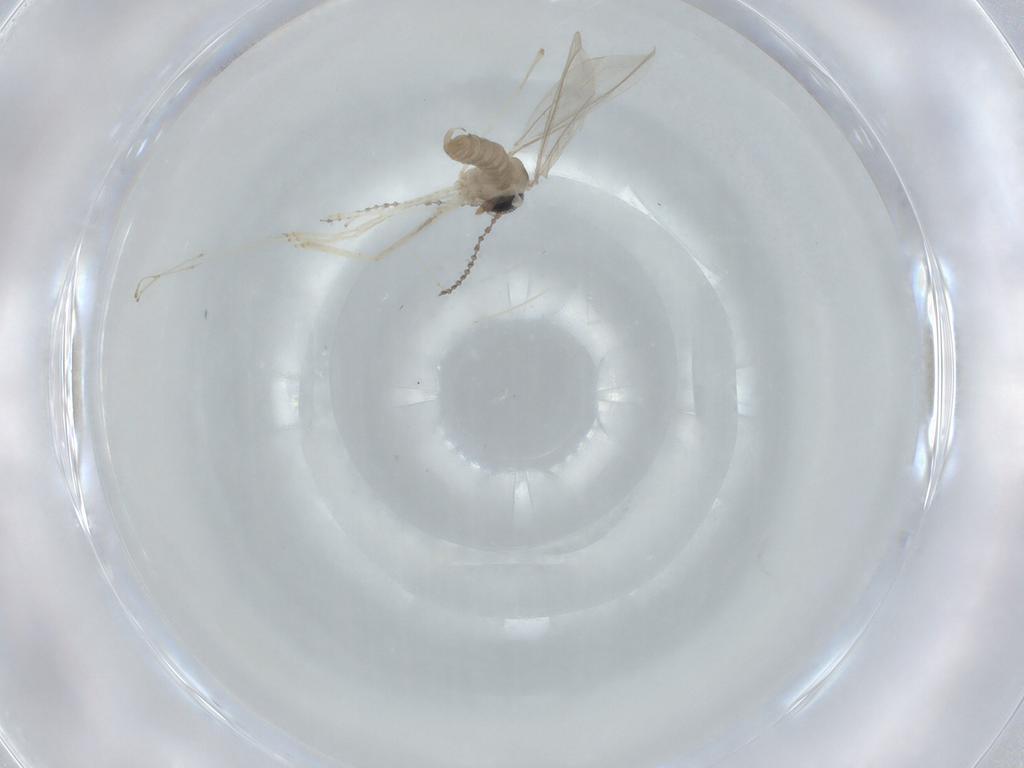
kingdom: Animalia
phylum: Arthropoda
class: Insecta
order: Diptera
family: Cecidomyiidae
